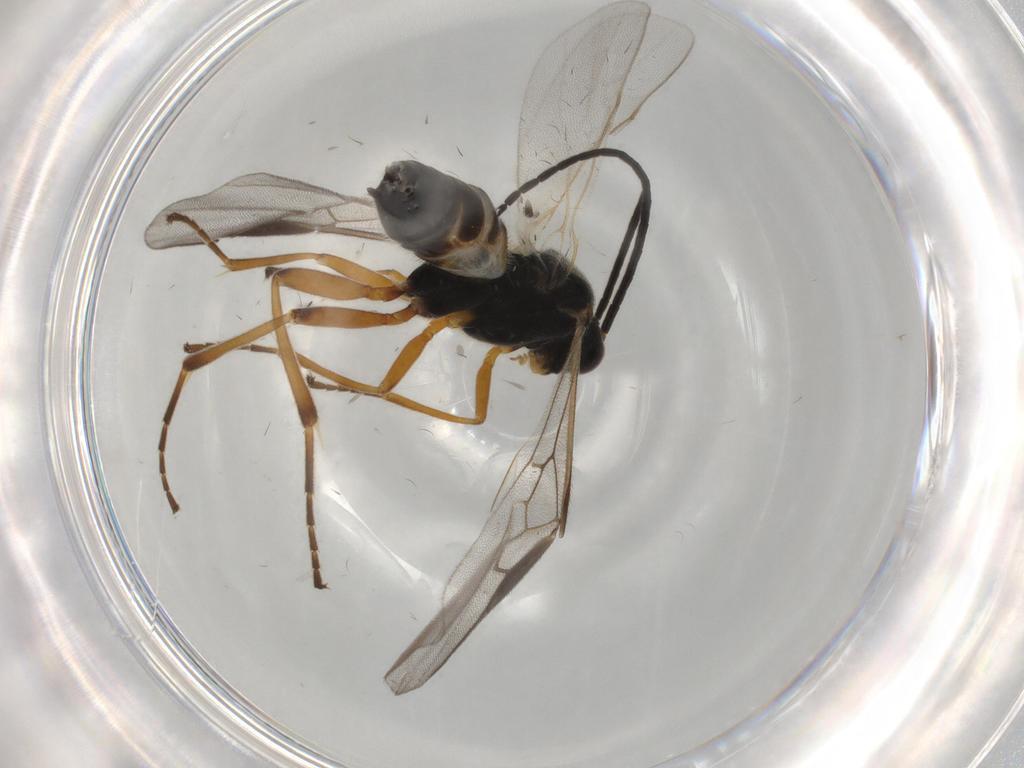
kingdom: Animalia
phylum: Arthropoda
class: Insecta
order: Hymenoptera
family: Braconidae
